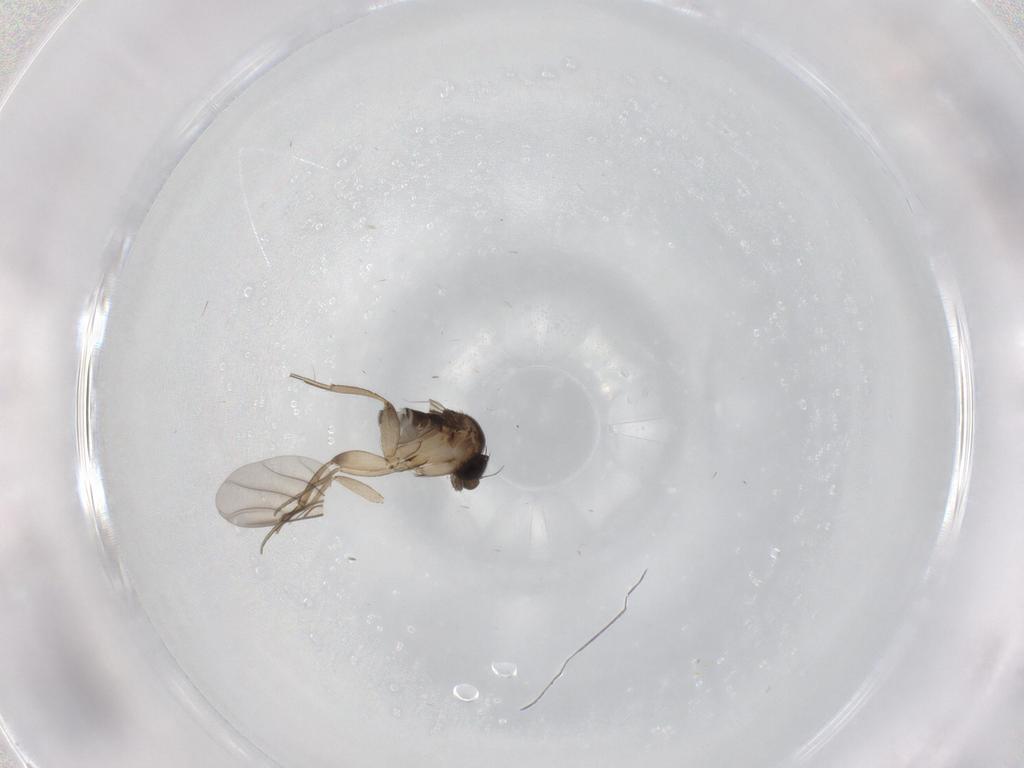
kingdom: Animalia
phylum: Arthropoda
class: Insecta
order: Diptera
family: Phoridae
